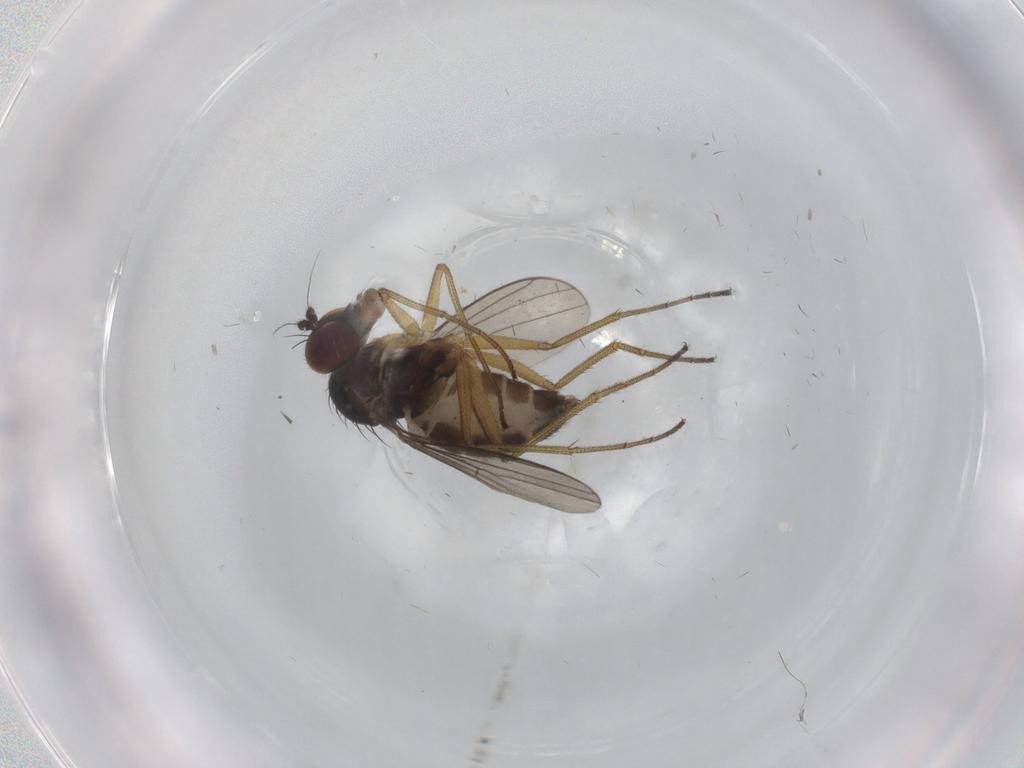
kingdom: Animalia
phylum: Arthropoda
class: Insecta
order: Diptera
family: Dolichopodidae
